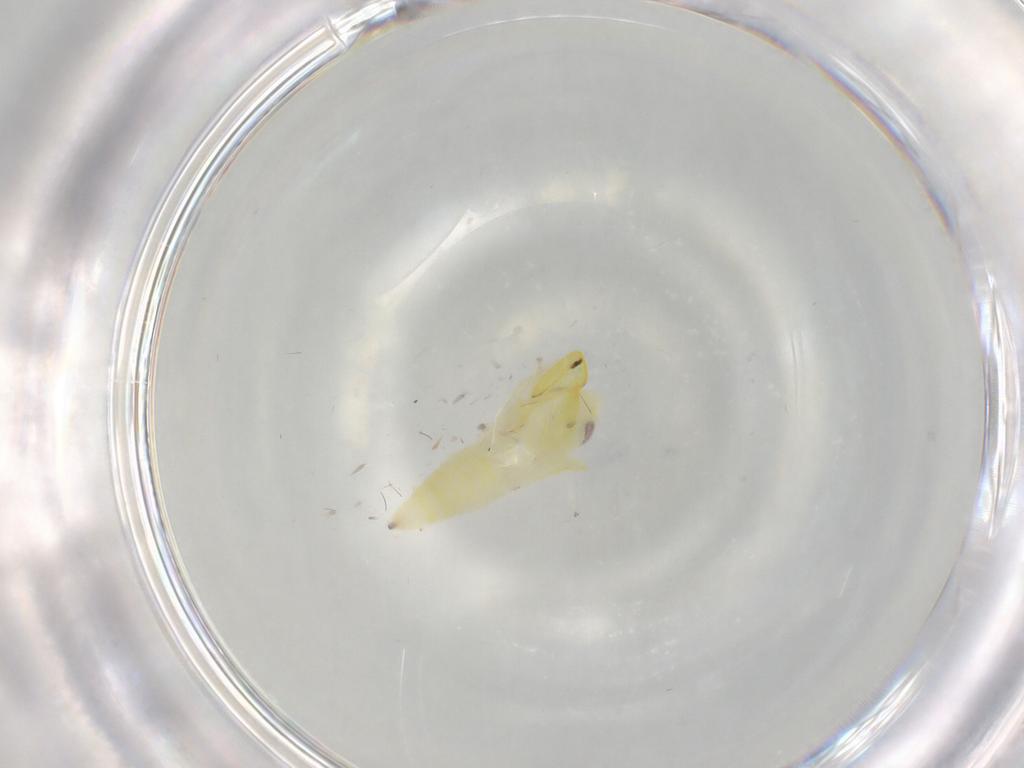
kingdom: Animalia
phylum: Arthropoda
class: Insecta
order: Hemiptera
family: Cicadellidae
